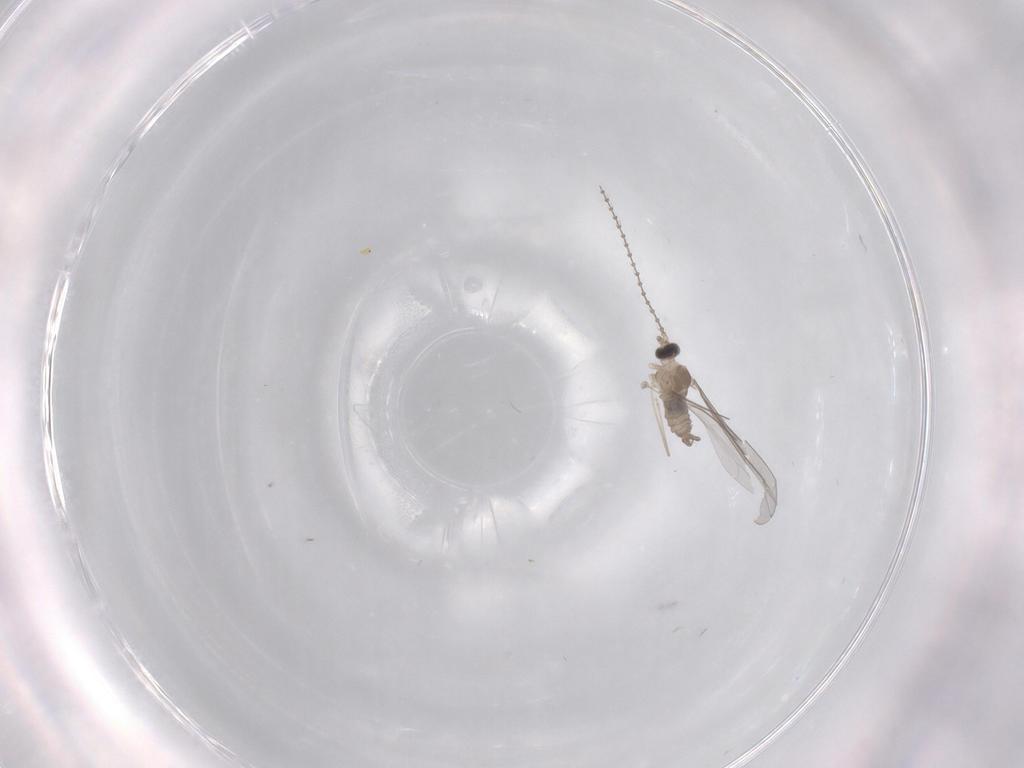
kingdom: Animalia
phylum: Arthropoda
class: Insecta
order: Diptera
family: Cecidomyiidae
